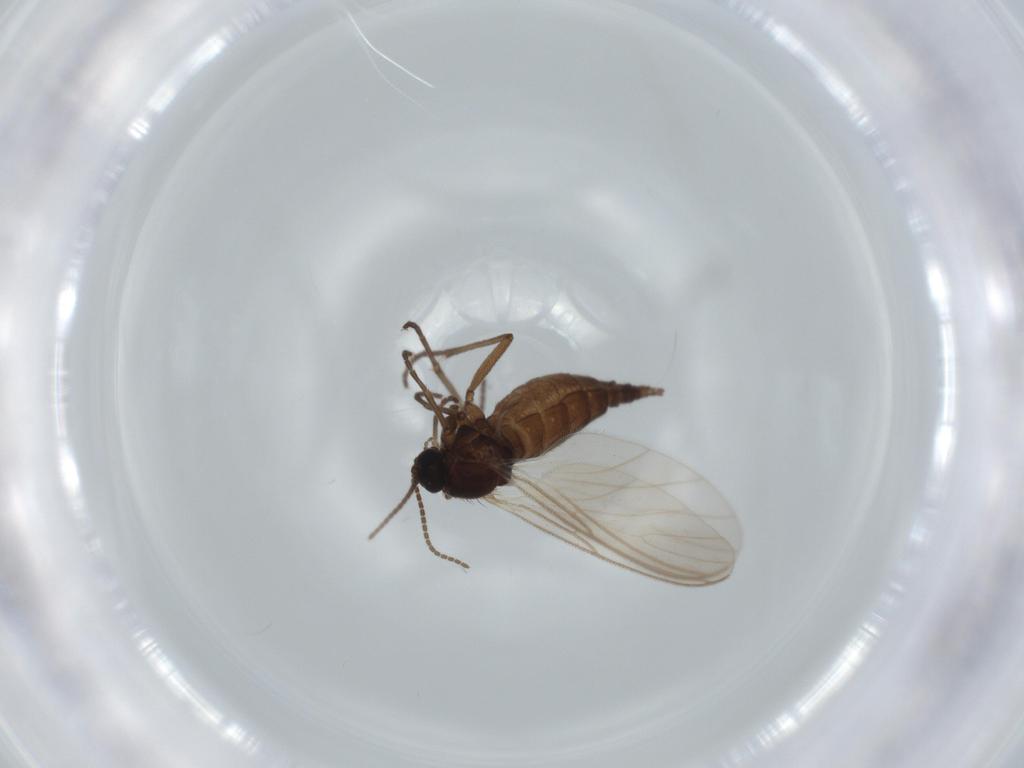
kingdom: Animalia
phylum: Arthropoda
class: Insecta
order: Diptera
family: Sciaridae
